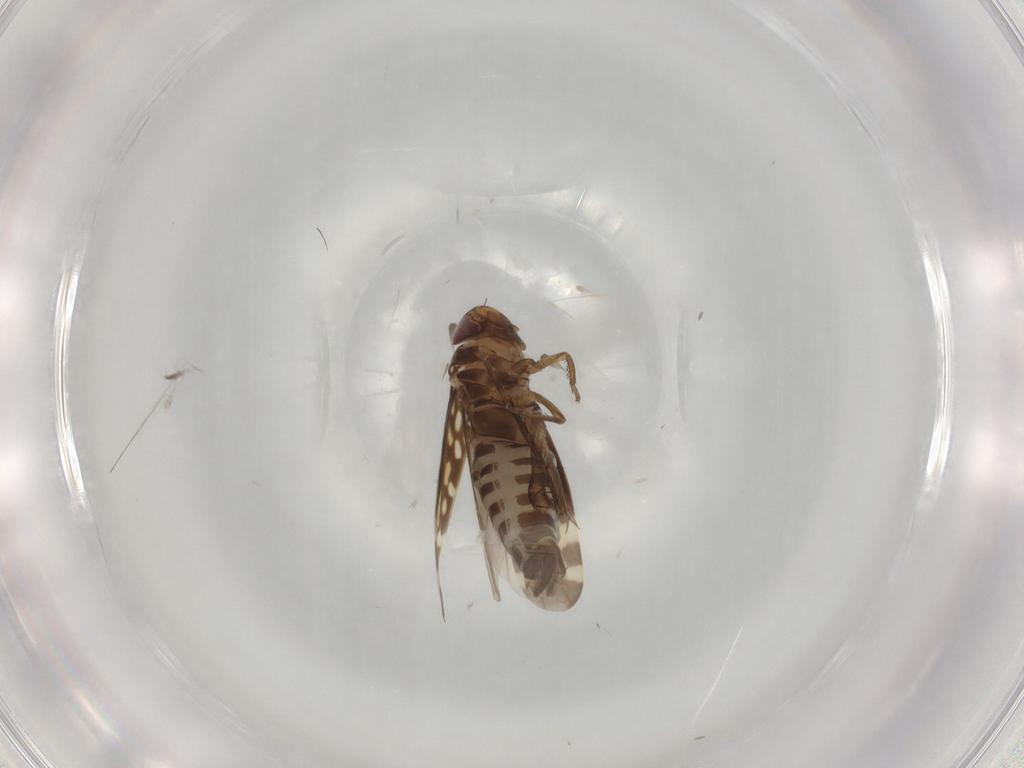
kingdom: Animalia
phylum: Arthropoda
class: Insecta
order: Hemiptera
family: Cicadellidae
